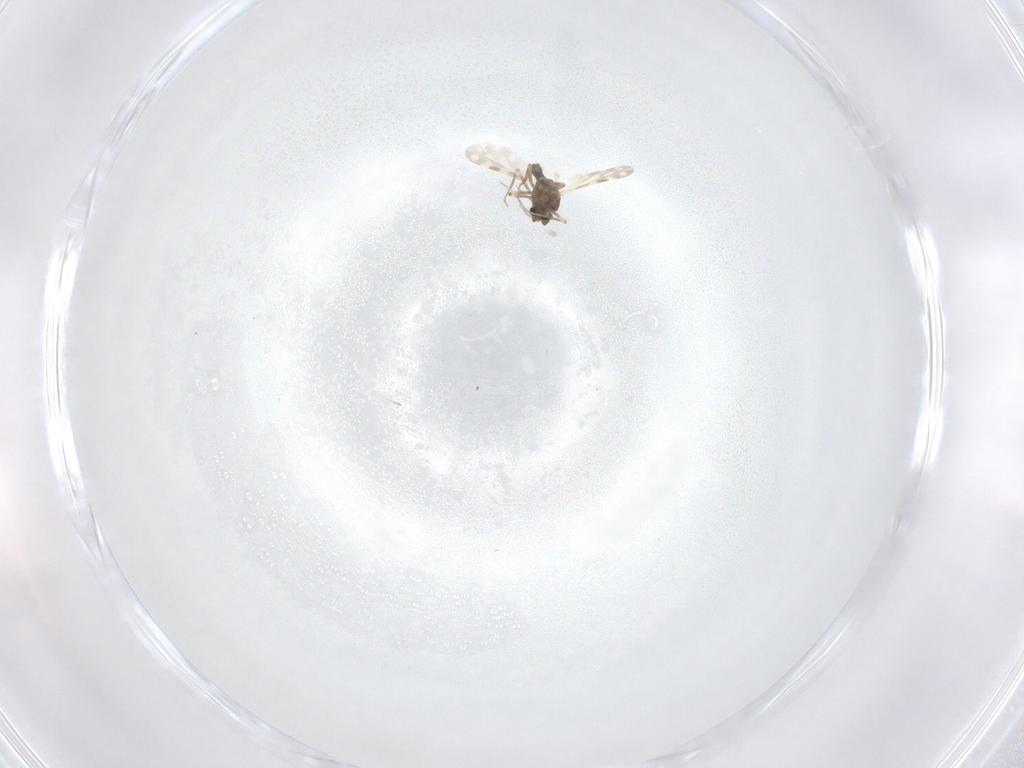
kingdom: Animalia
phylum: Arthropoda
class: Insecta
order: Diptera
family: Limoniidae
